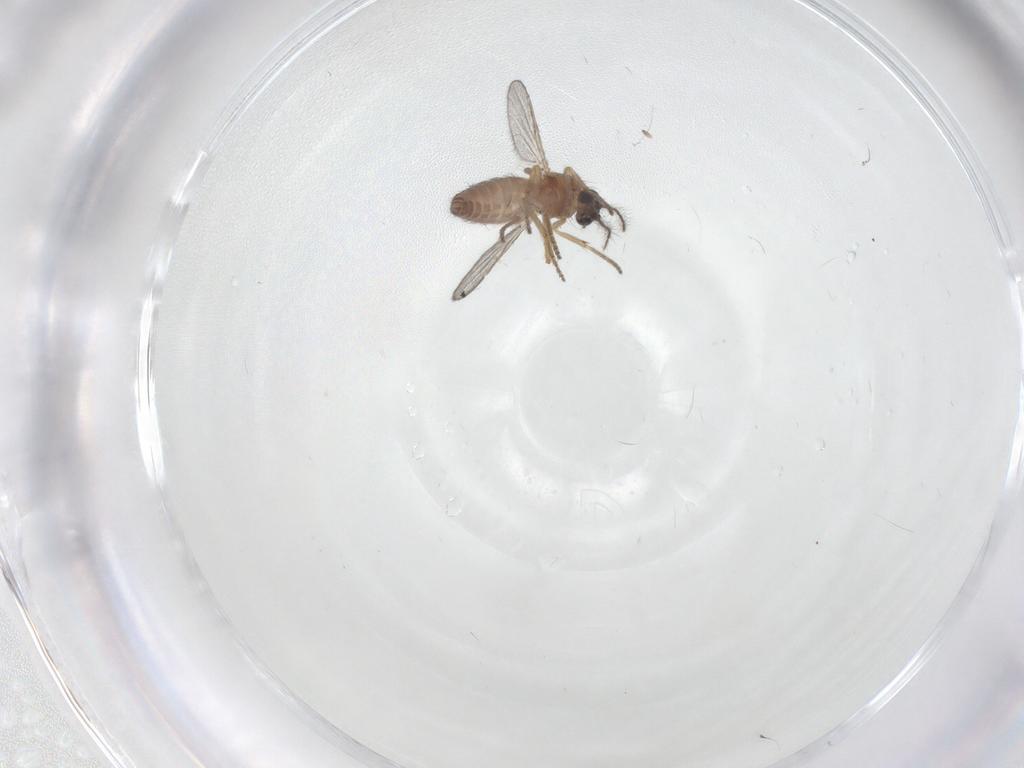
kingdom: Animalia
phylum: Arthropoda
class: Insecta
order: Diptera
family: Ceratopogonidae
